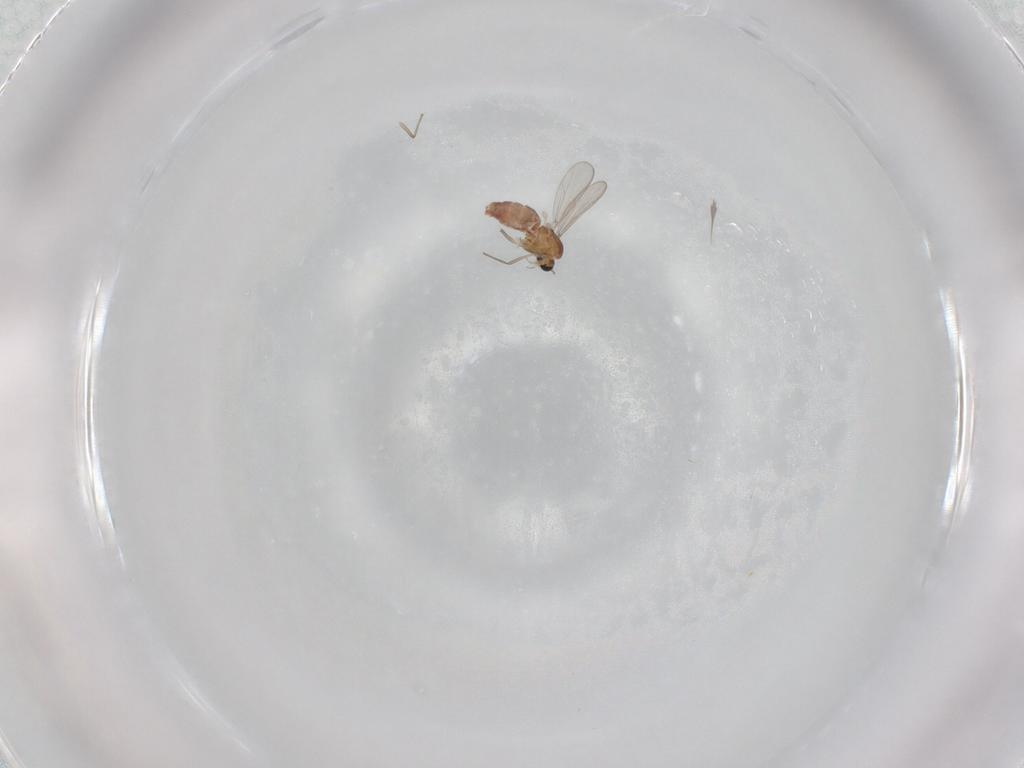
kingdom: Animalia
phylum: Arthropoda
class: Insecta
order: Diptera
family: Chironomidae
